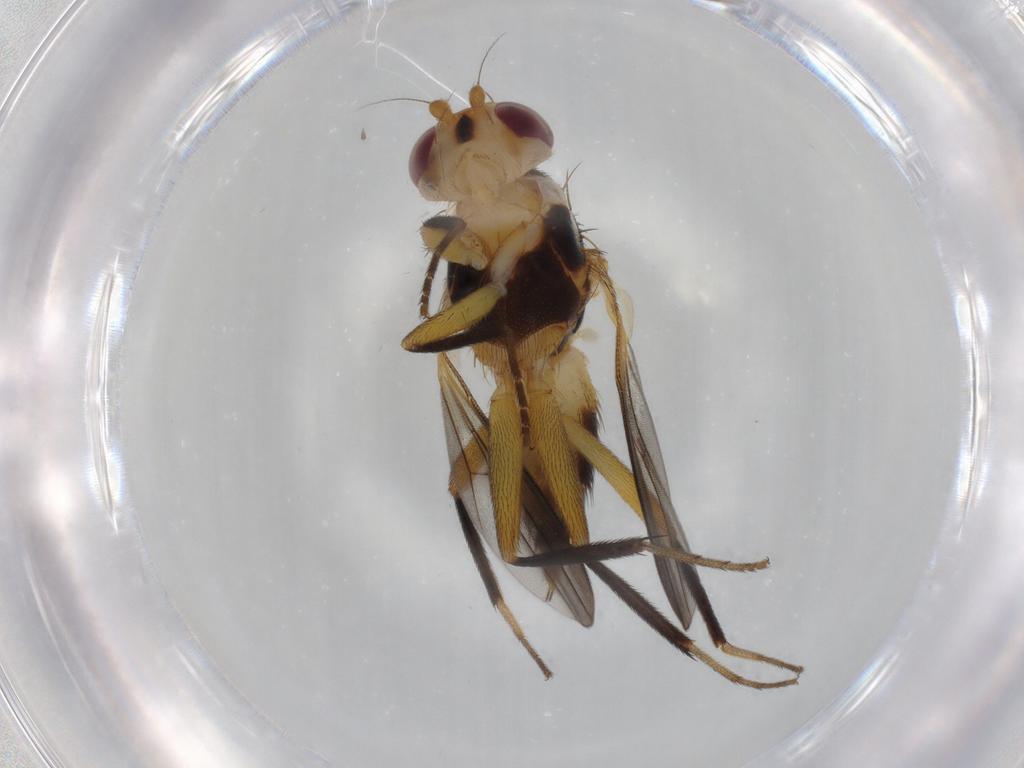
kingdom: Animalia
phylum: Arthropoda
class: Insecta
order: Diptera
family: Heleomyzidae
